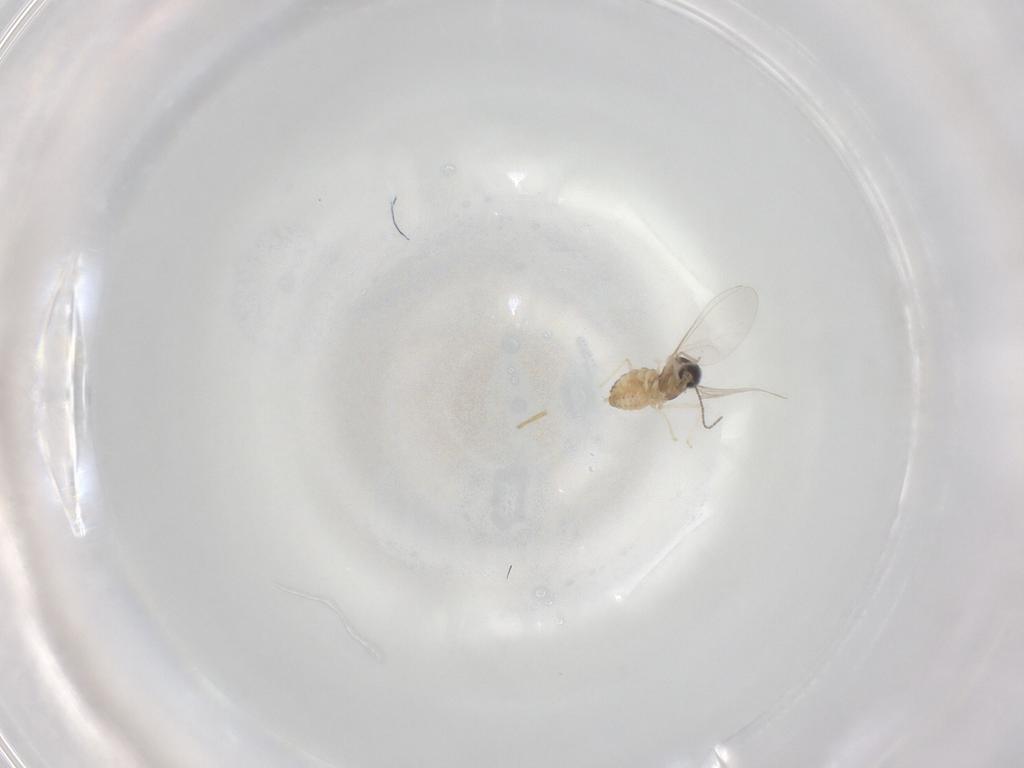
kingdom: Animalia
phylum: Arthropoda
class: Insecta
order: Diptera
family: Cecidomyiidae
